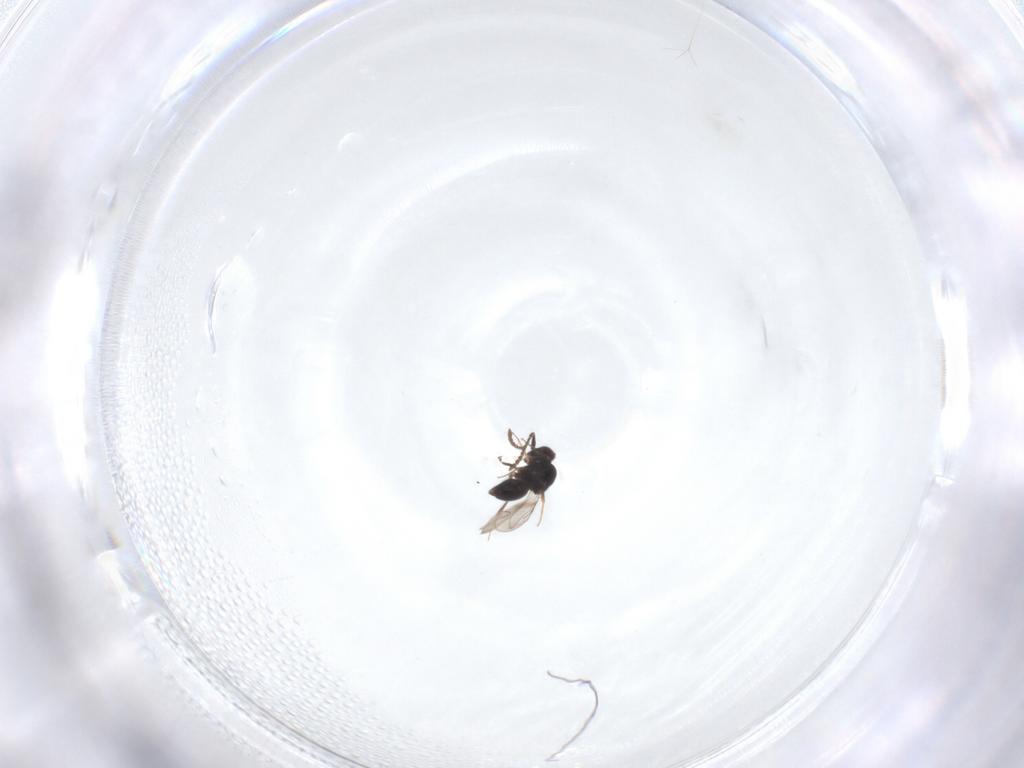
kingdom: Animalia
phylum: Arthropoda
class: Insecta
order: Hymenoptera
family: Ceraphronidae
